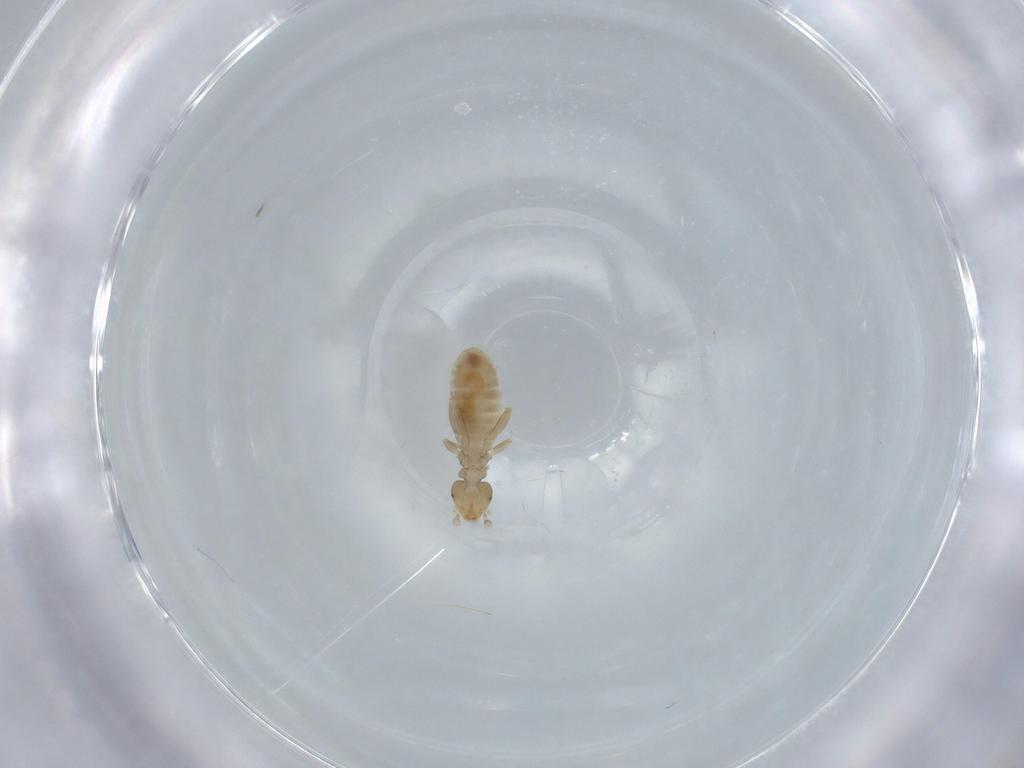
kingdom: Animalia
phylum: Arthropoda
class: Insecta
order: Psocodea
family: Liposcelididae
